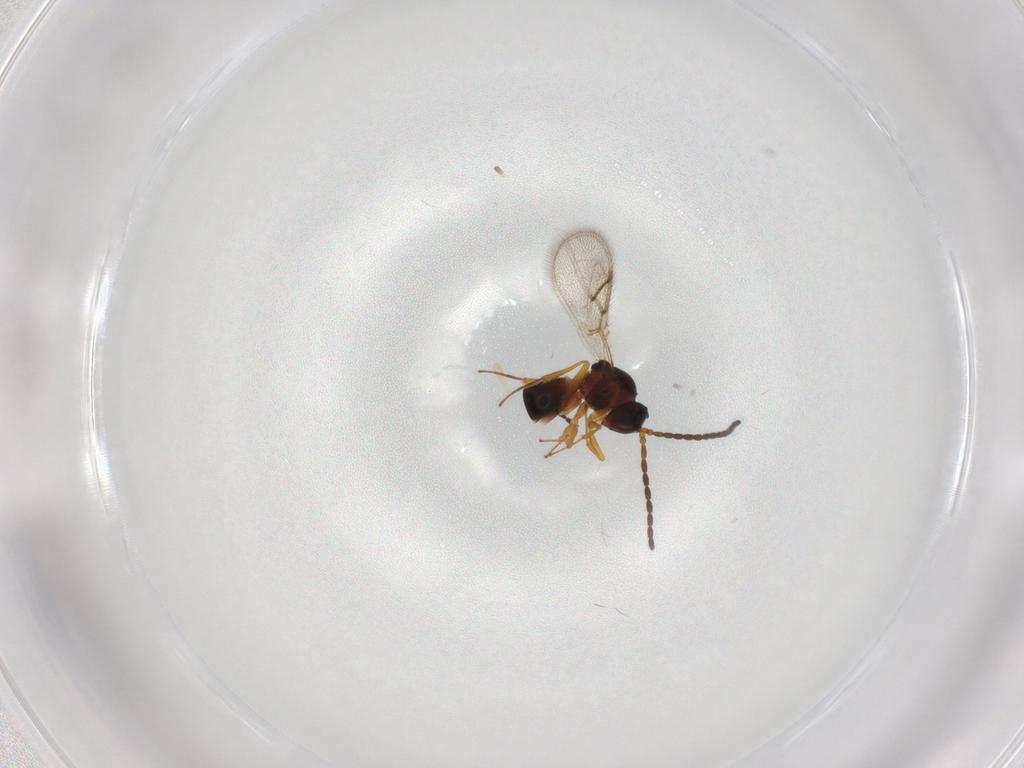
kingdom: Animalia
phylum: Arthropoda
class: Insecta
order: Hymenoptera
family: Figitidae
